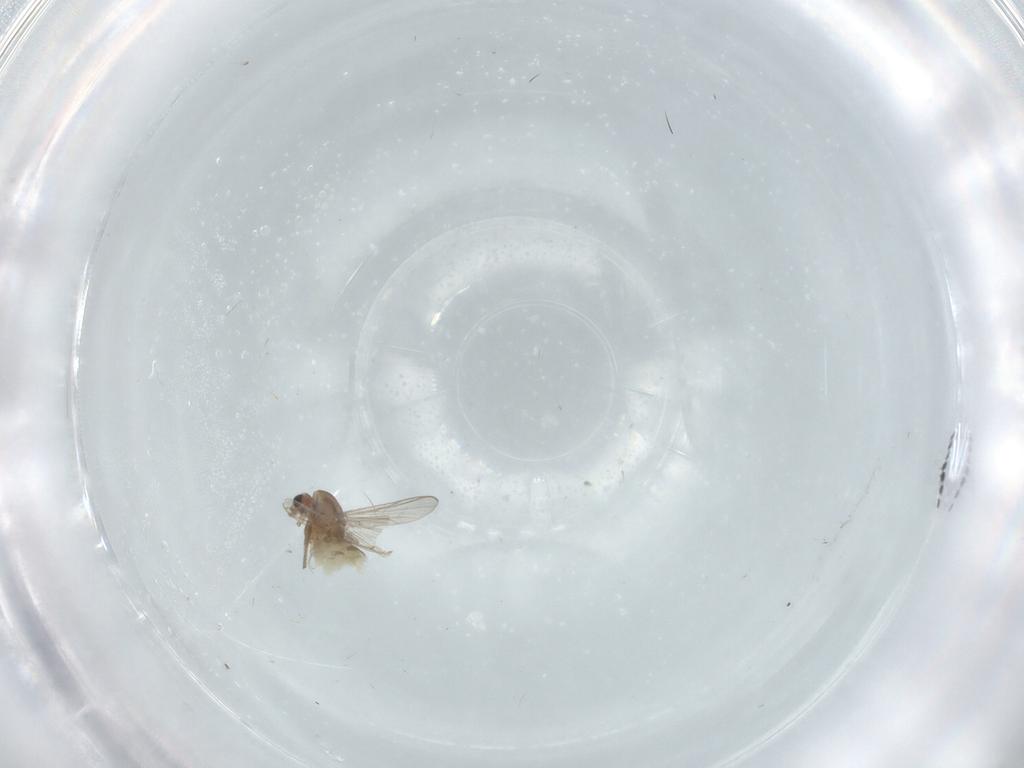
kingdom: Animalia
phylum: Arthropoda
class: Insecta
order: Diptera
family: Sciaridae
